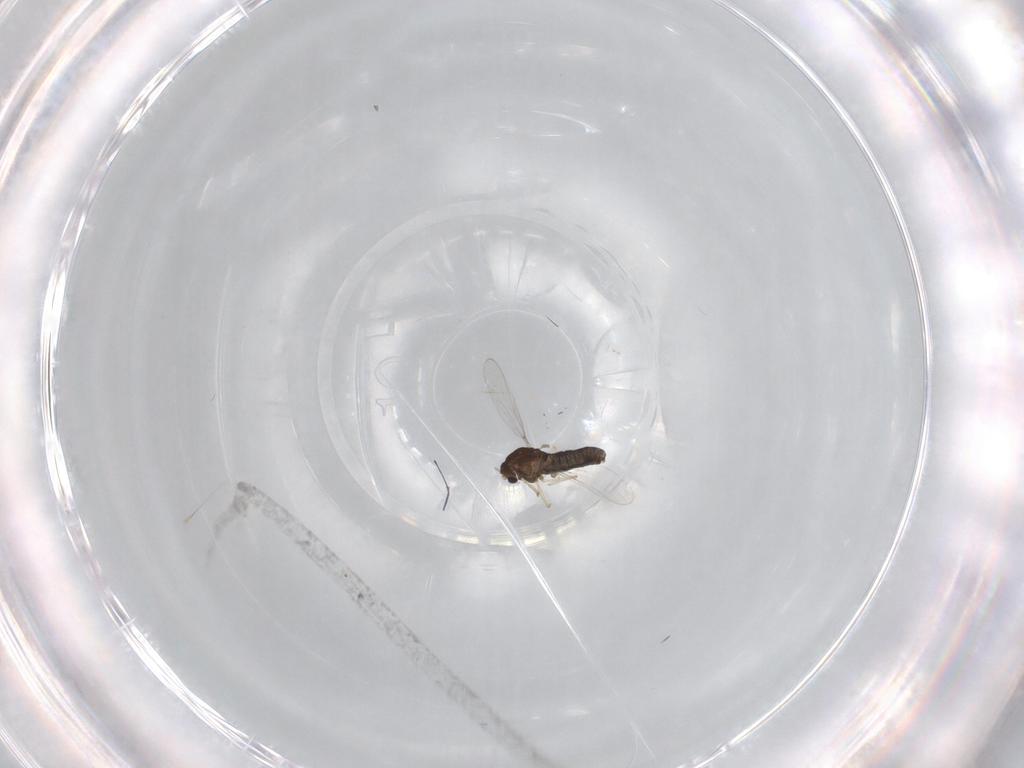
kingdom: Animalia
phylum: Arthropoda
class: Insecta
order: Diptera
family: Chironomidae
